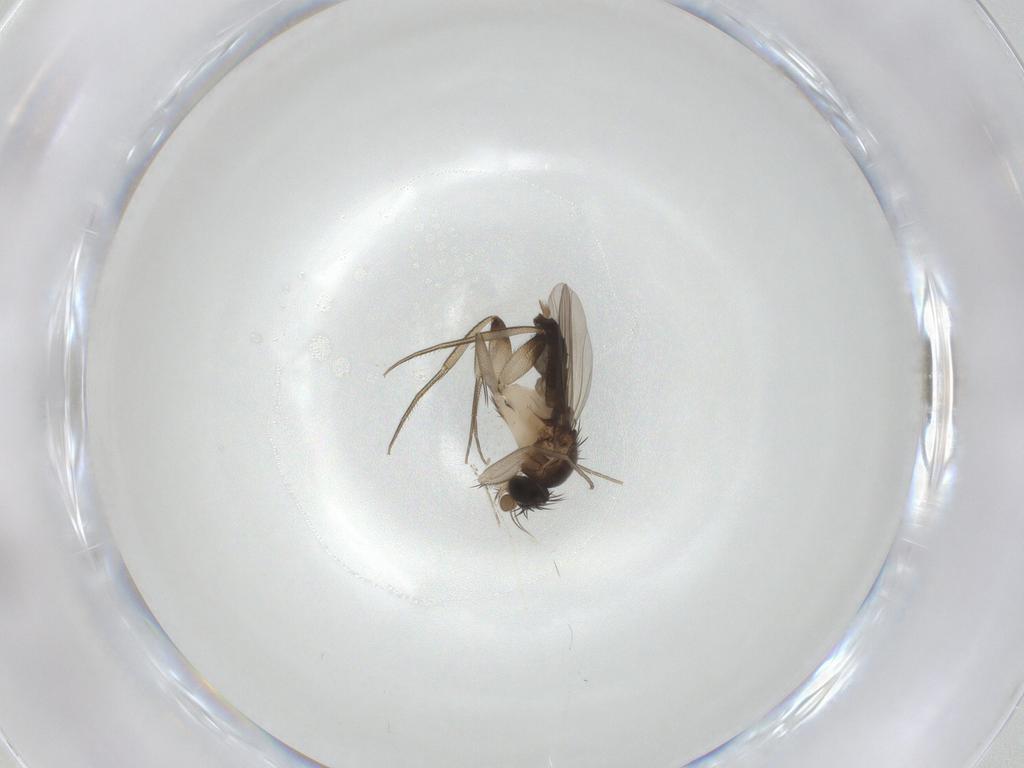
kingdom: Animalia
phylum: Arthropoda
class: Insecta
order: Diptera
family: Phoridae
